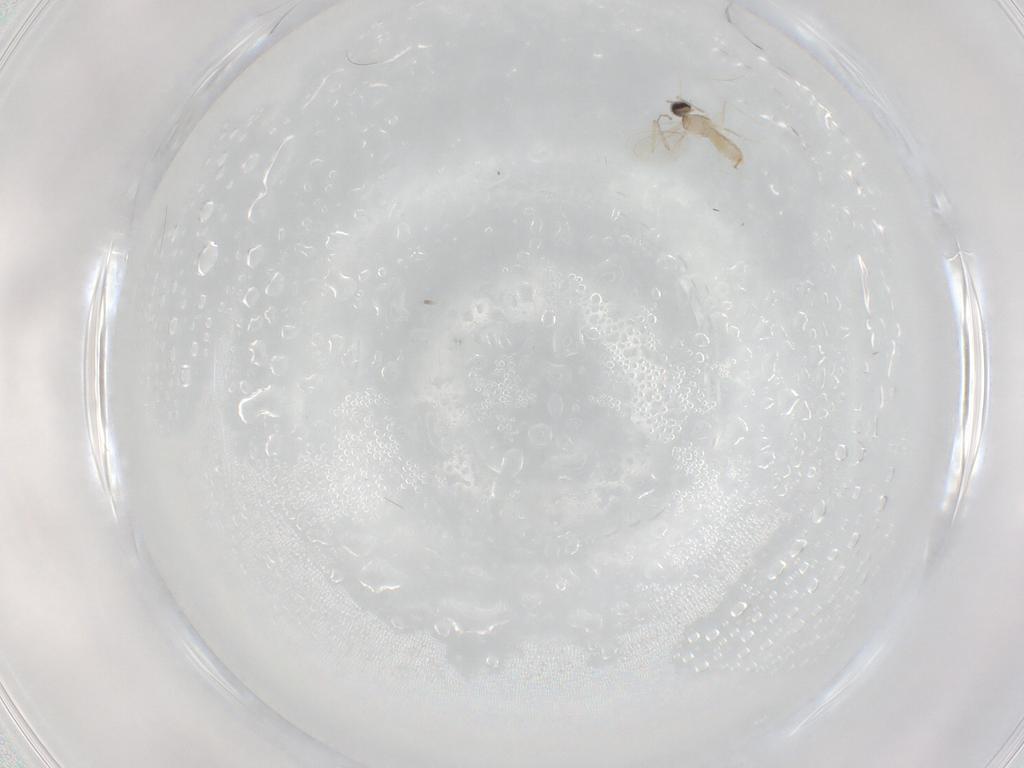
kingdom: Animalia
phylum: Arthropoda
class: Insecta
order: Diptera
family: Cecidomyiidae
